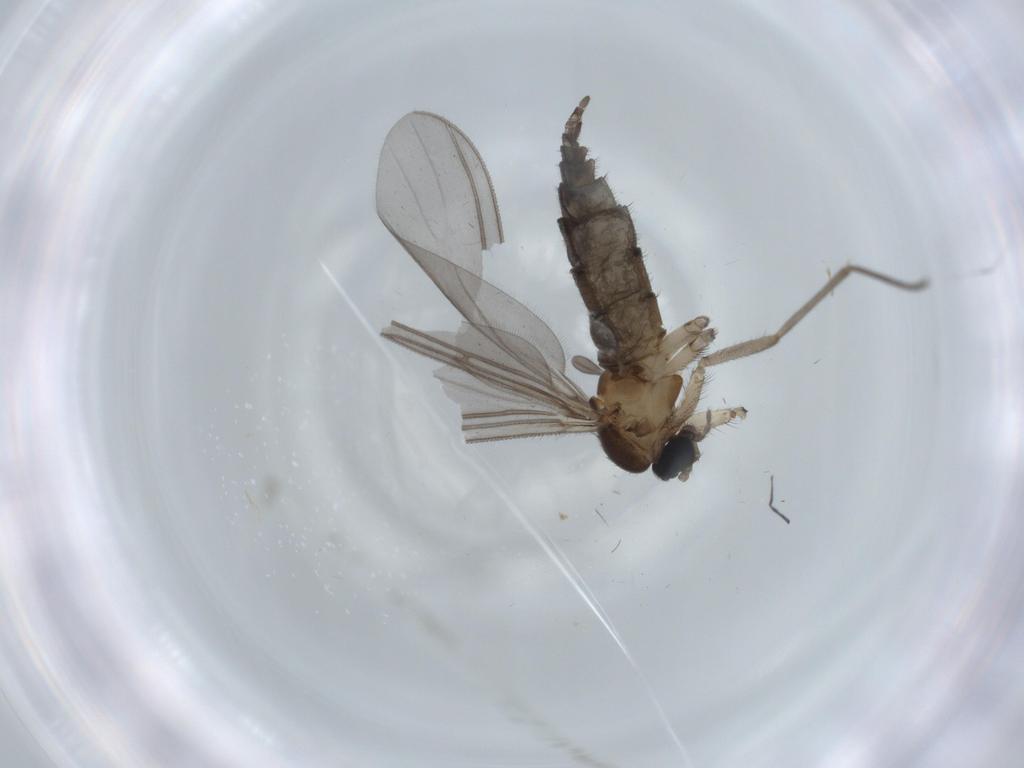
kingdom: Animalia
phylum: Arthropoda
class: Insecta
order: Diptera
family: Sciaridae
